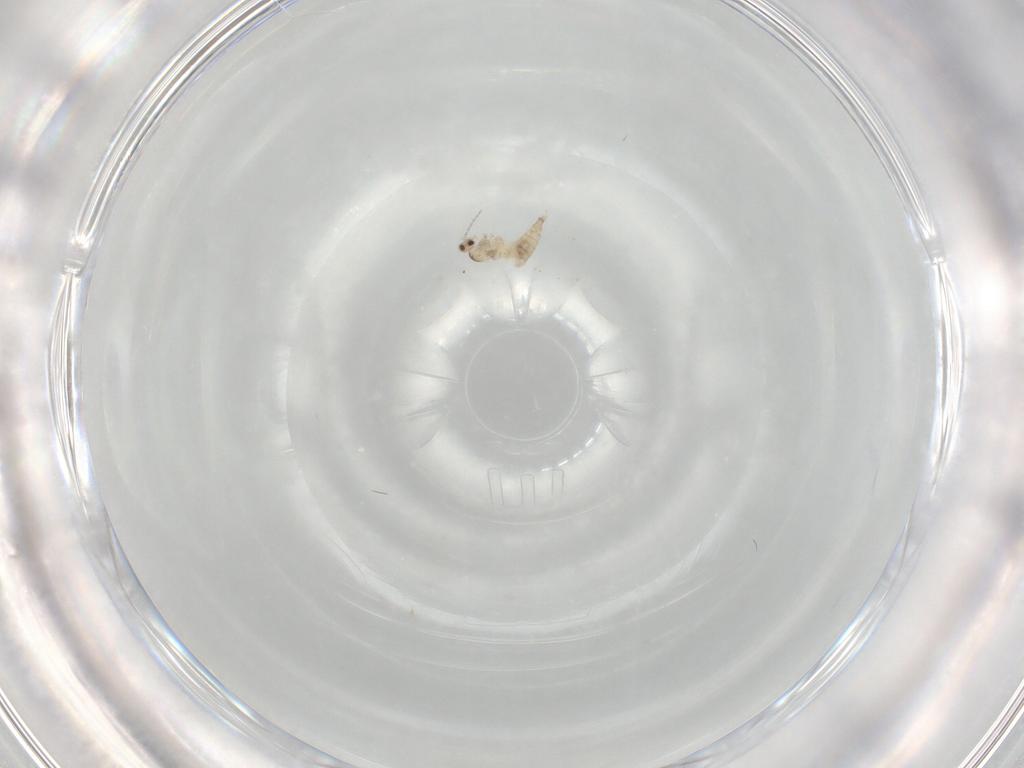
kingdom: Animalia
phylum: Arthropoda
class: Insecta
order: Diptera
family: Cecidomyiidae
